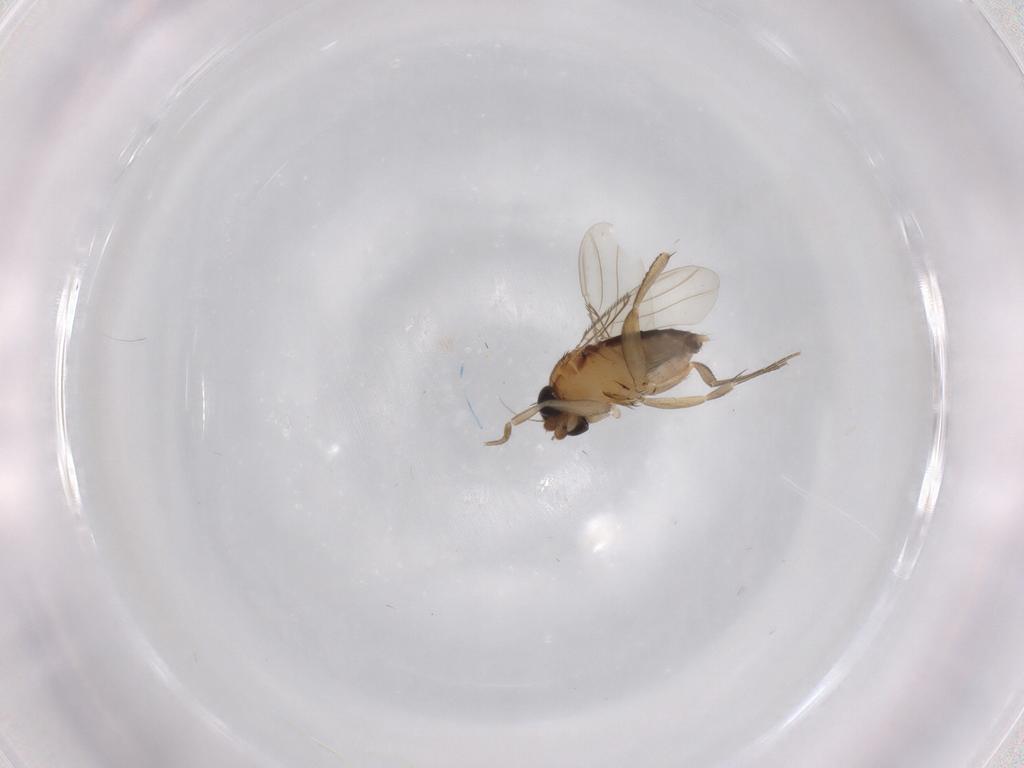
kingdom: Animalia
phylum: Arthropoda
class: Insecta
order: Diptera
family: Phoridae
